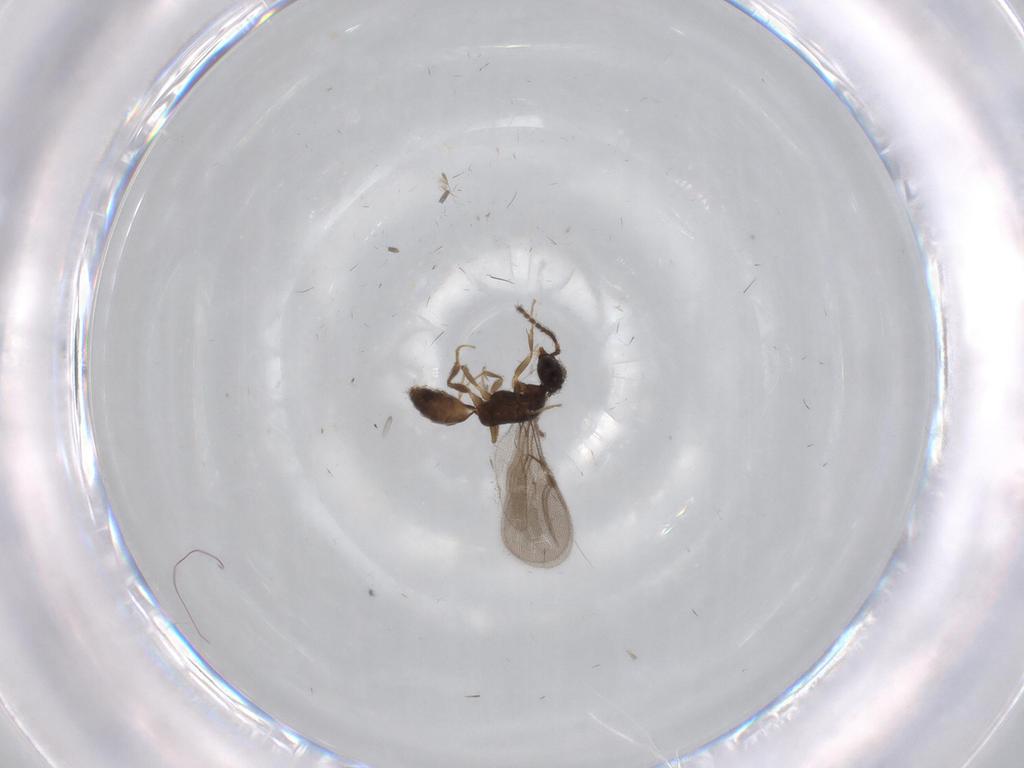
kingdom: Animalia
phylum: Arthropoda
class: Insecta
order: Hymenoptera
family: Bethylidae
